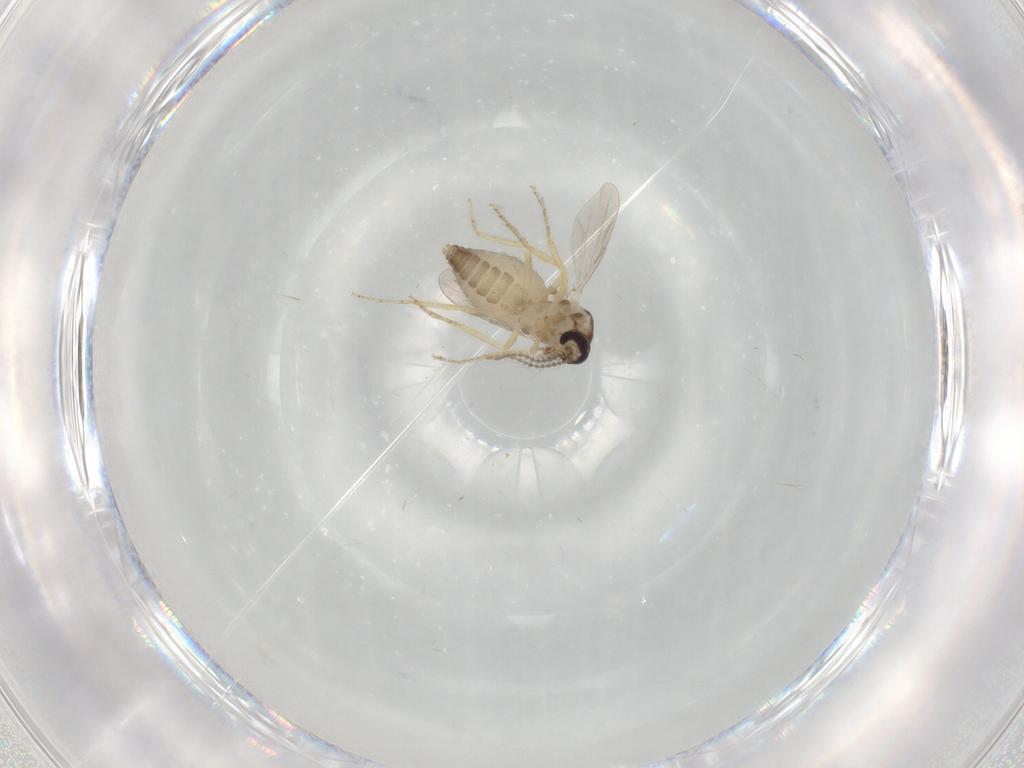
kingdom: Animalia
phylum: Arthropoda
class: Insecta
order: Diptera
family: Ceratopogonidae
